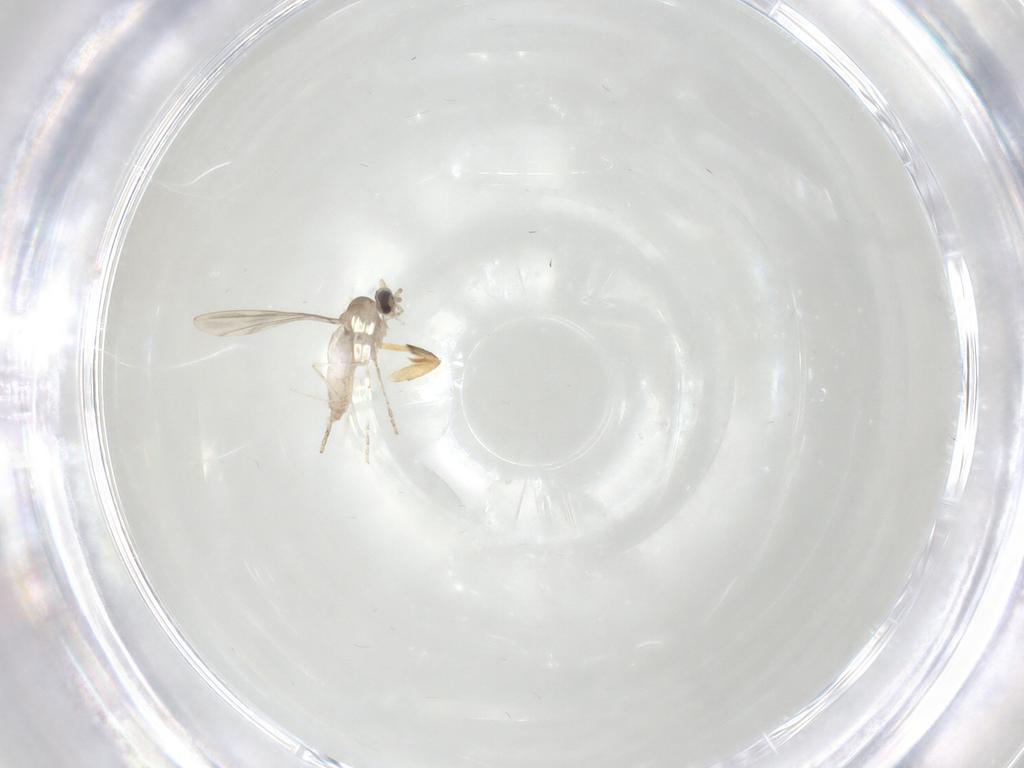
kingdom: Animalia
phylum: Arthropoda
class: Insecta
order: Diptera
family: Cecidomyiidae
